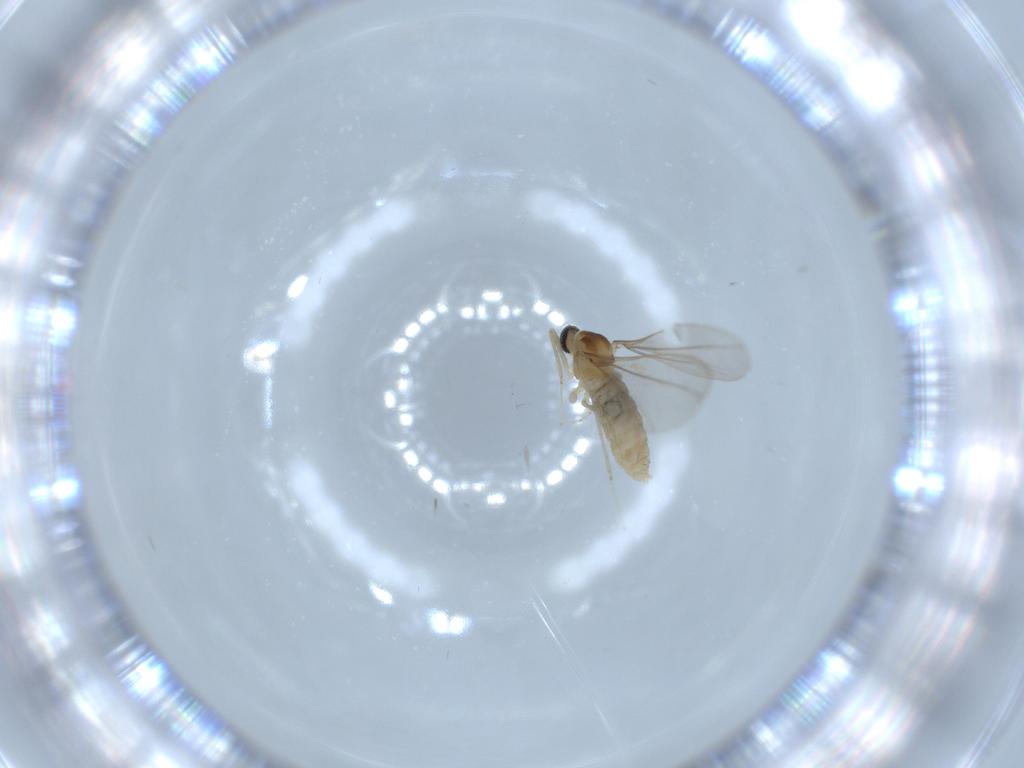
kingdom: Animalia
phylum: Arthropoda
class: Insecta
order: Diptera
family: Cecidomyiidae
